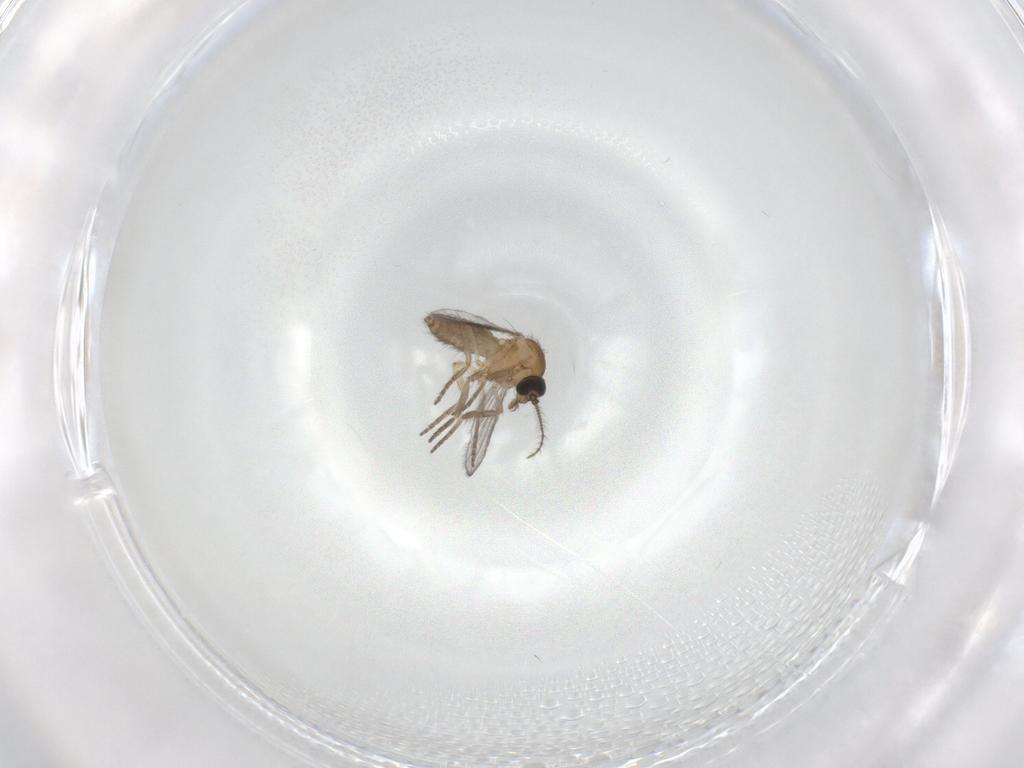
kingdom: Animalia
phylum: Arthropoda
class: Insecta
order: Diptera
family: Ceratopogonidae
